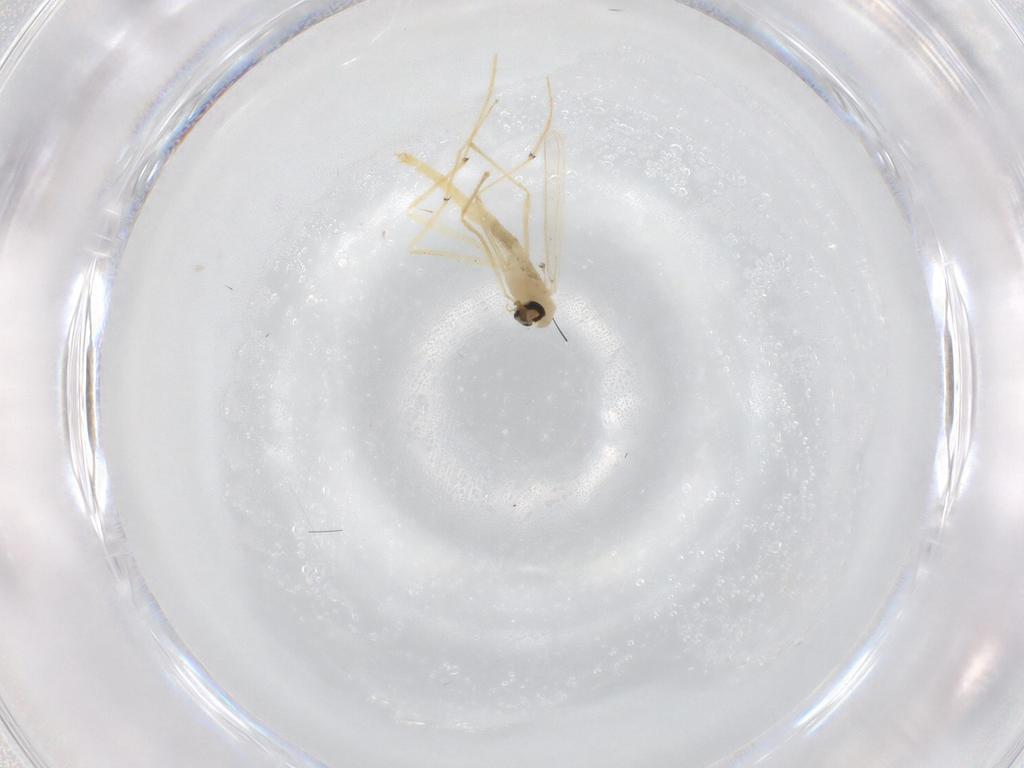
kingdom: Animalia
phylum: Arthropoda
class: Insecta
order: Diptera
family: Chironomidae
